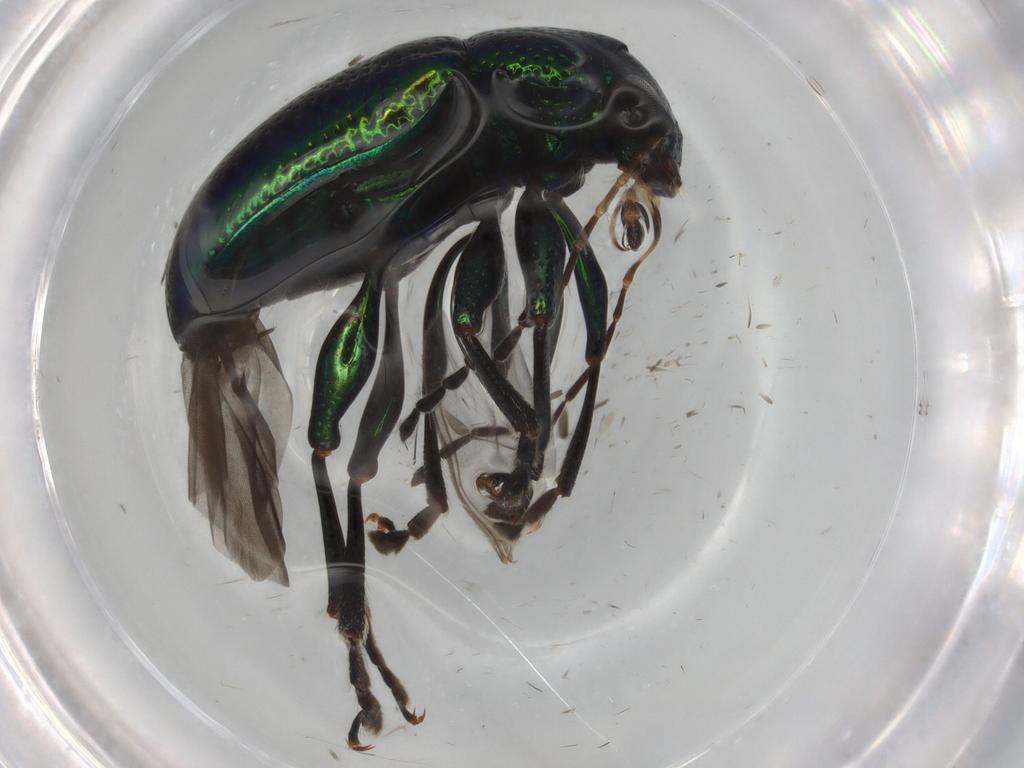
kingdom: Animalia
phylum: Arthropoda
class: Insecta
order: Coleoptera
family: Chrysomelidae
